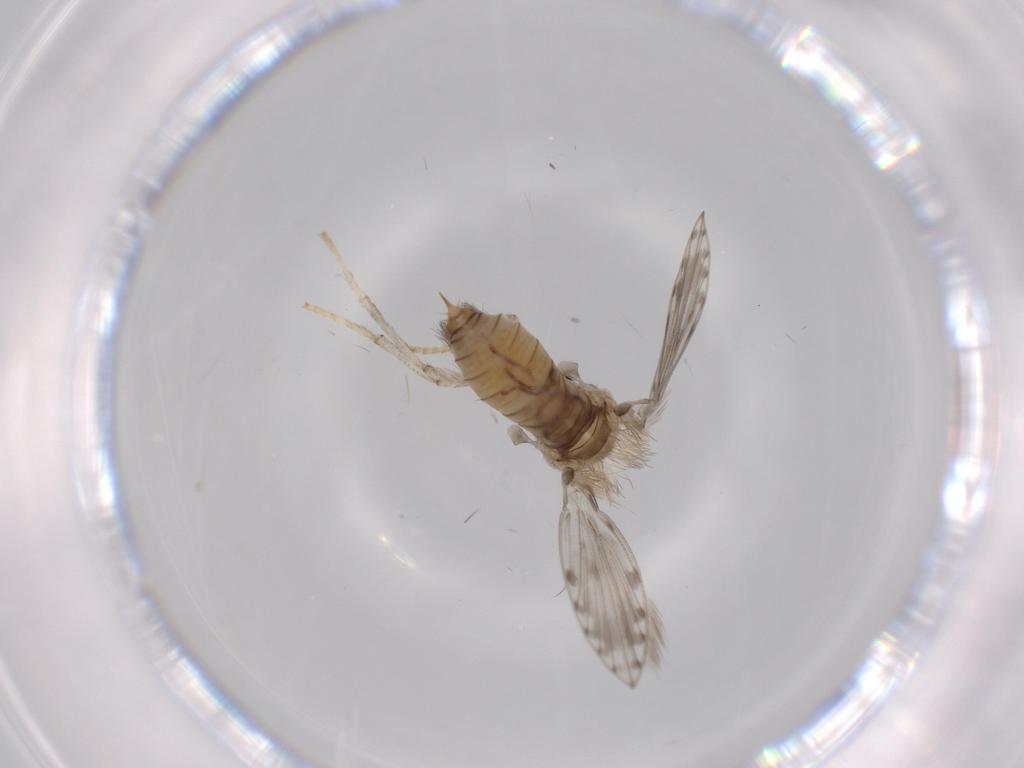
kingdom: Animalia
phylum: Arthropoda
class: Insecta
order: Diptera
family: Psychodidae
